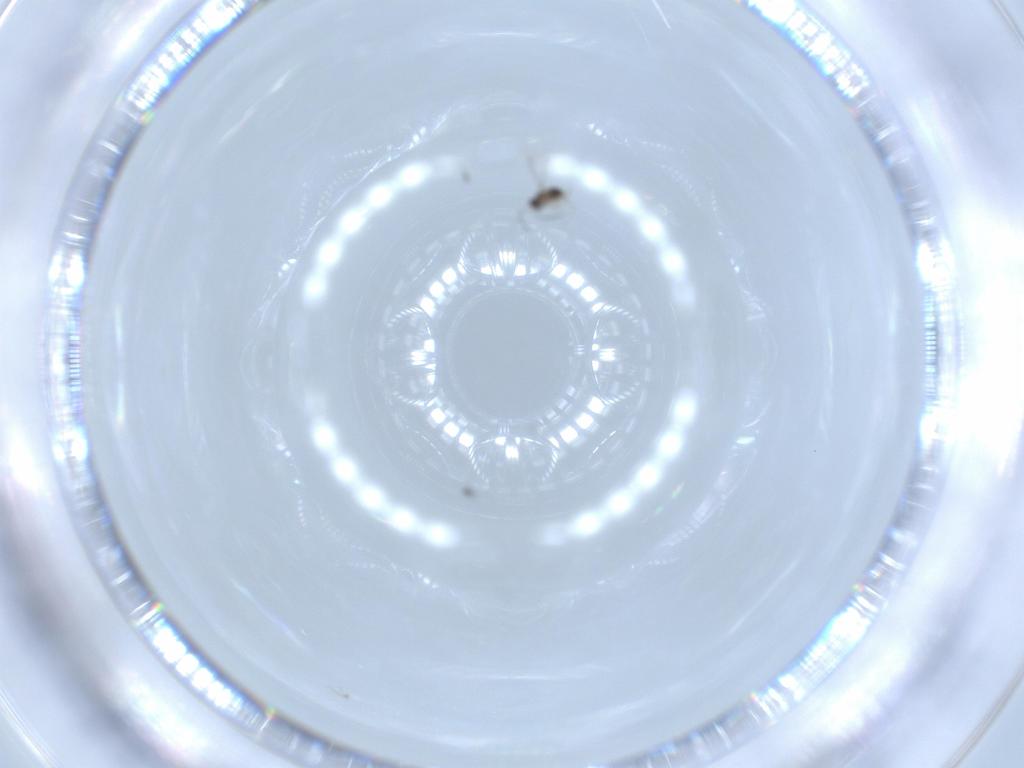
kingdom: Animalia
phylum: Arthropoda
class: Insecta
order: Hymenoptera
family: Mymaridae
